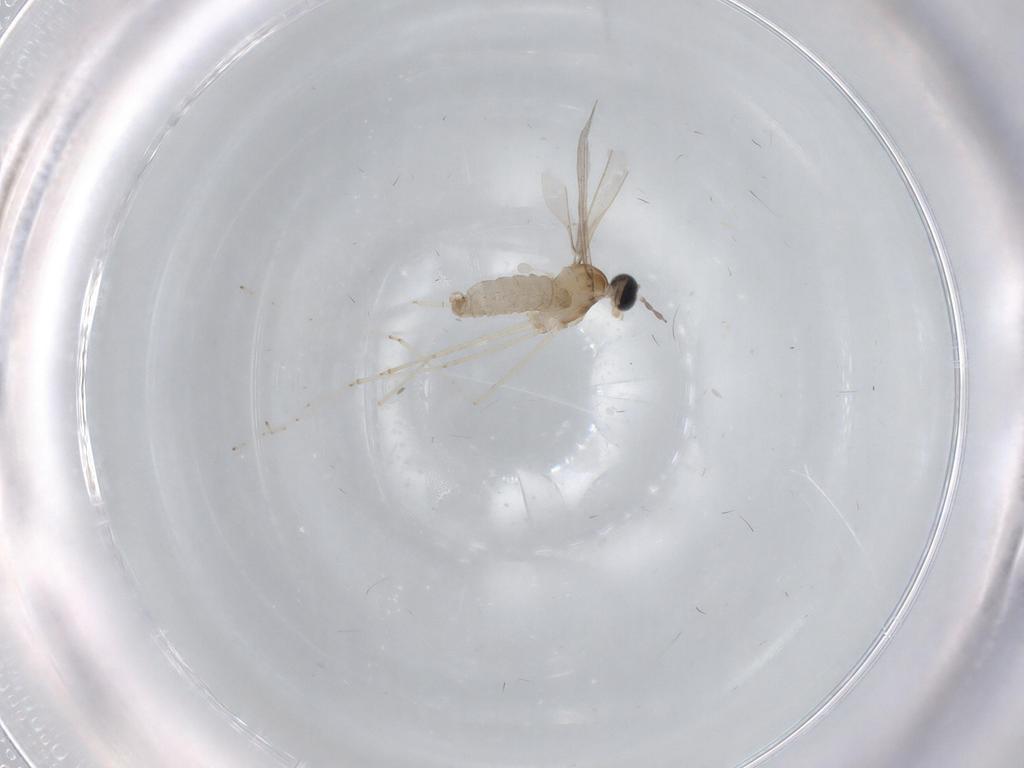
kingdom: Animalia
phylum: Arthropoda
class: Insecta
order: Diptera
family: Cecidomyiidae
